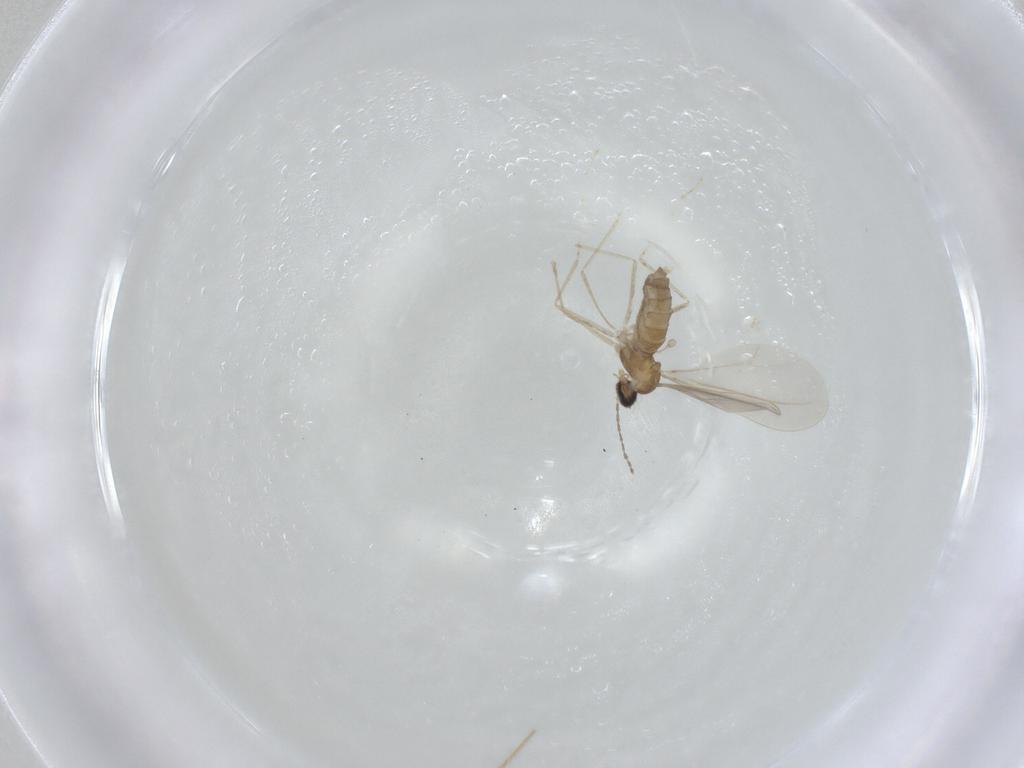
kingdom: Animalia
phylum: Arthropoda
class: Insecta
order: Diptera
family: Cecidomyiidae
